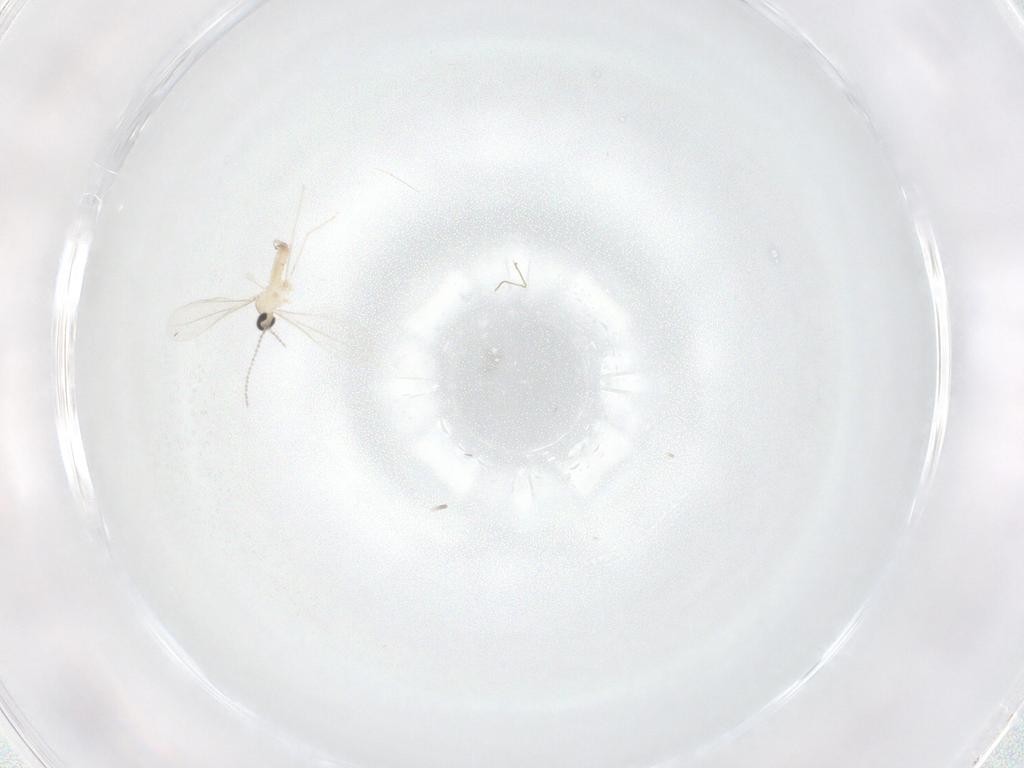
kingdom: Animalia
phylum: Arthropoda
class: Insecta
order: Diptera
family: Cecidomyiidae
